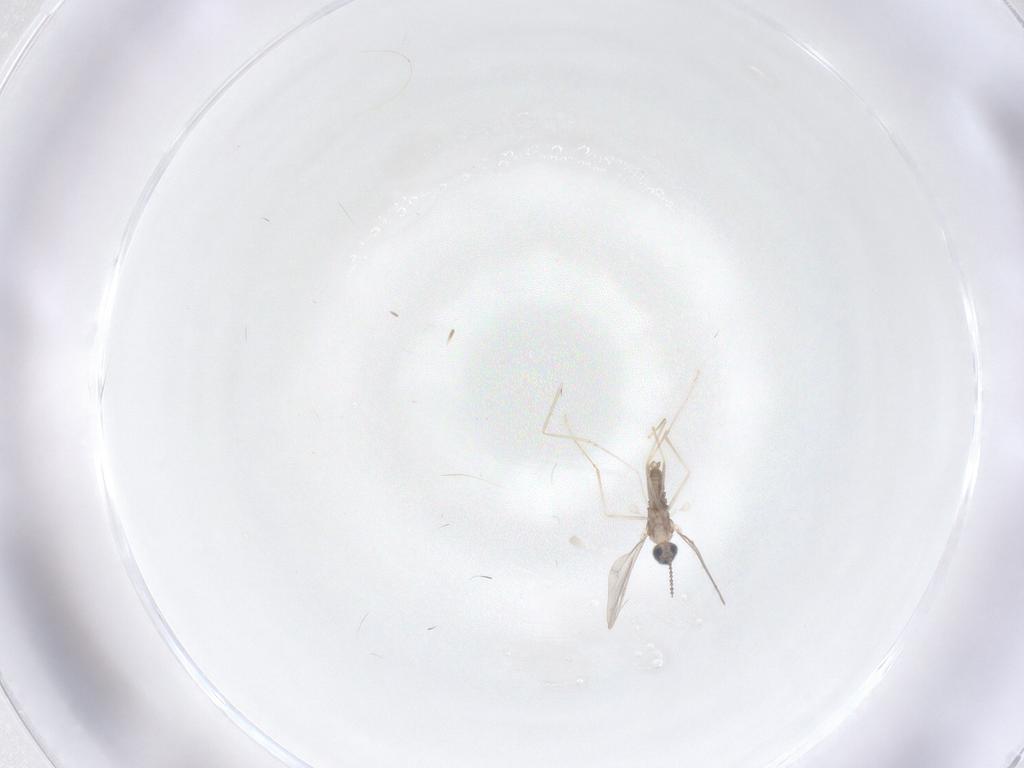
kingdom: Animalia
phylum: Arthropoda
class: Insecta
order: Diptera
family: Cecidomyiidae
